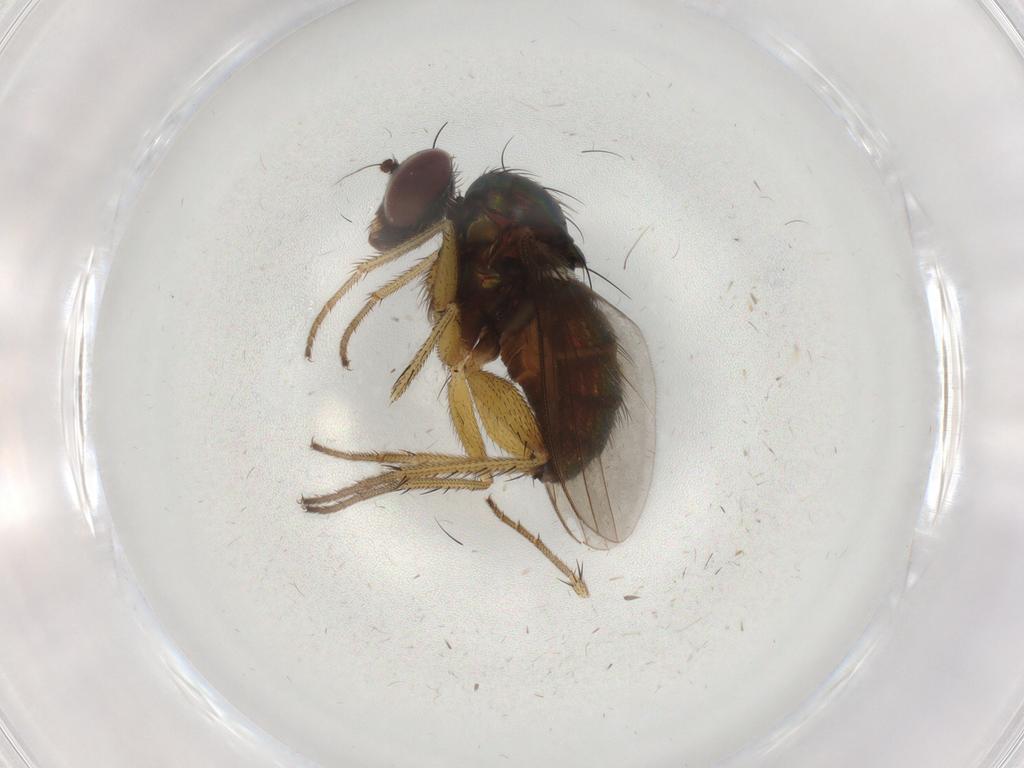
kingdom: Animalia
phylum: Arthropoda
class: Insecta
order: Diptera
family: Dolichopodidae
